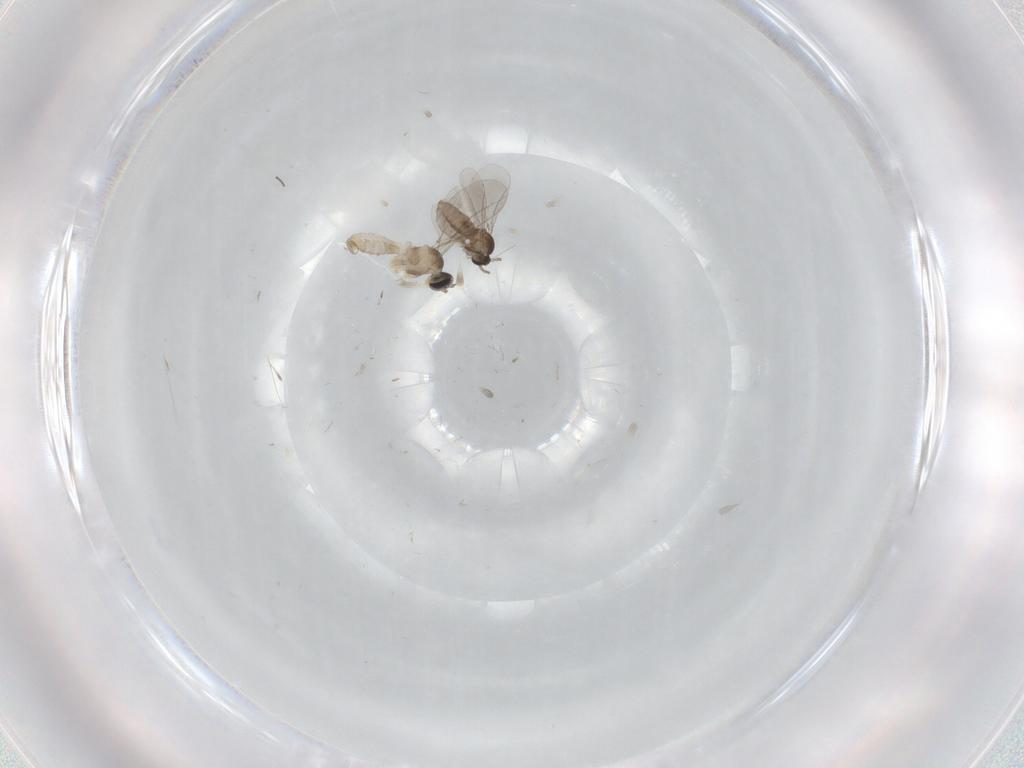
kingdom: Animalia
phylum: Arthropoda
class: Insecta
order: Diptera
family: Cecidomyiidae
